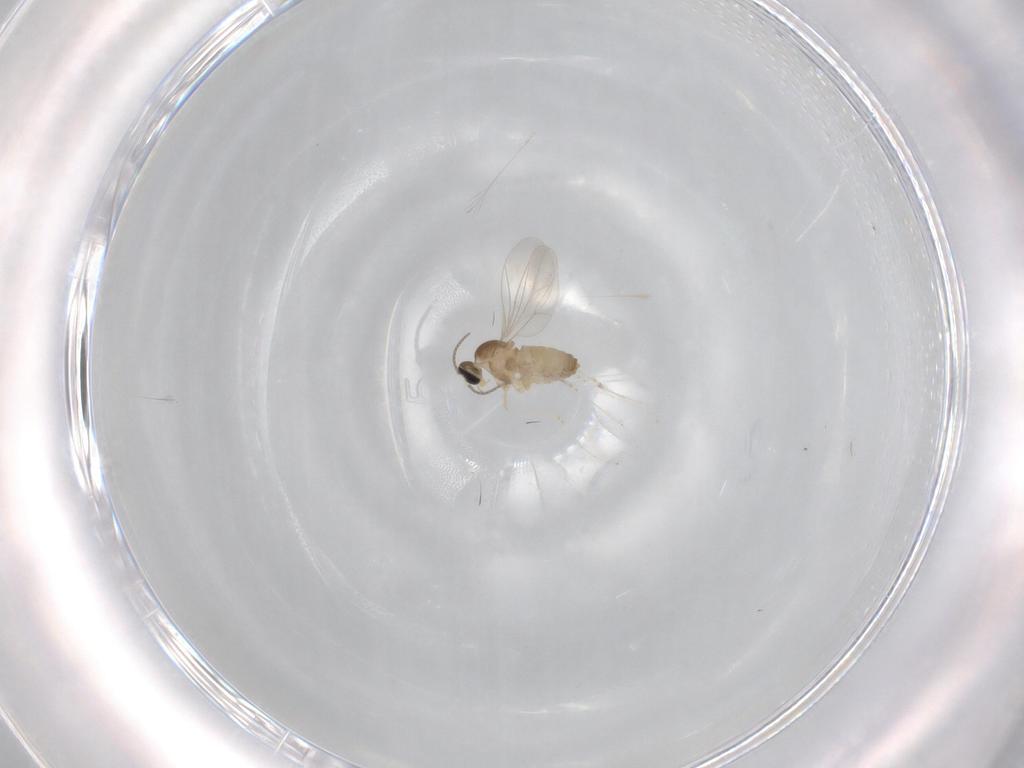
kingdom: Animalia
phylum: Arthropoda
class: Insecta
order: Diptera
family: Cecidomyiidae
